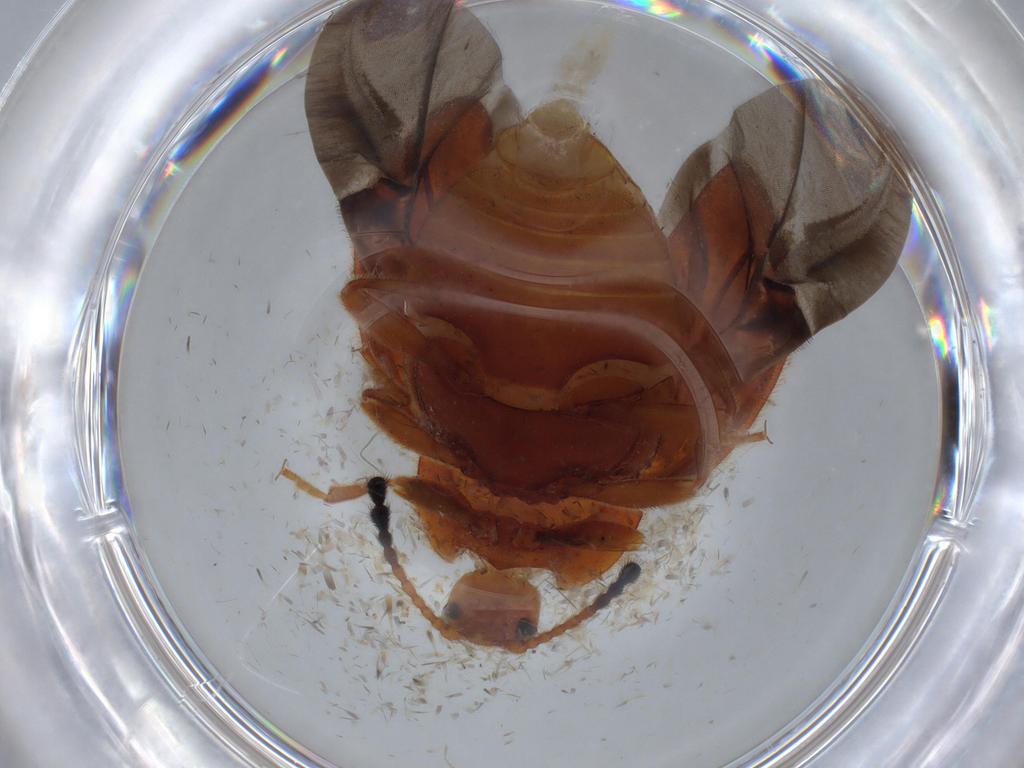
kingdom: Animalia
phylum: Arthropoda
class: Insecta
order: Coleoptera
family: Endomychidae
